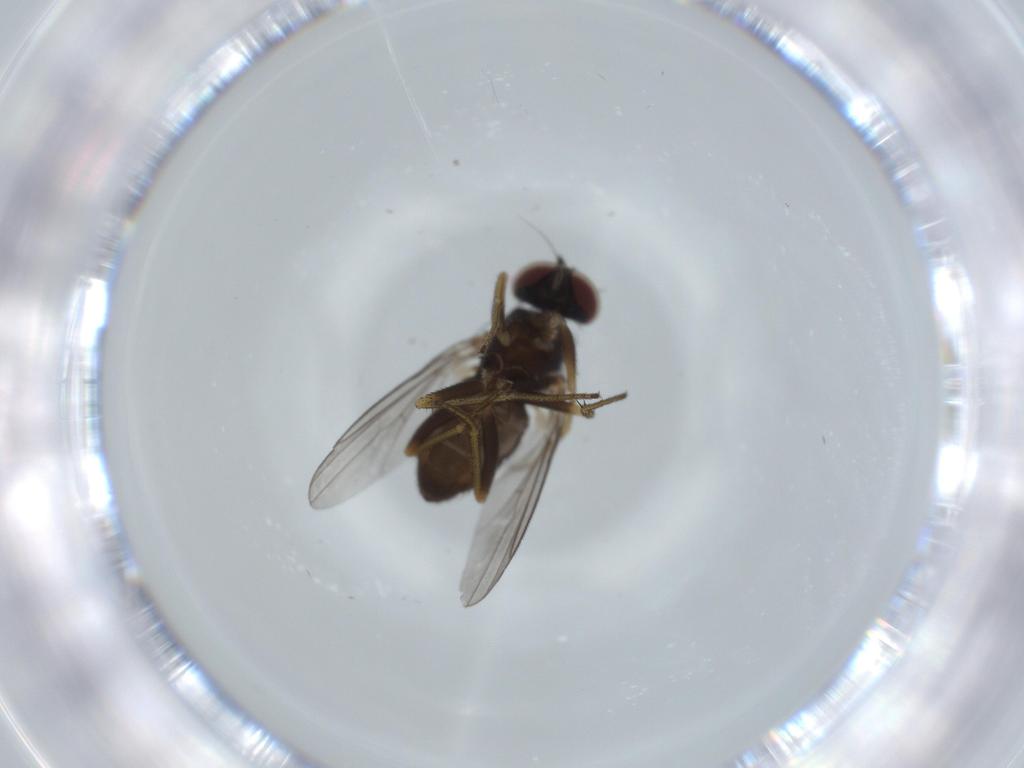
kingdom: Animalia
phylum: Arthropoda
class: Insecta
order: Diptera
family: Dolichopodidae
